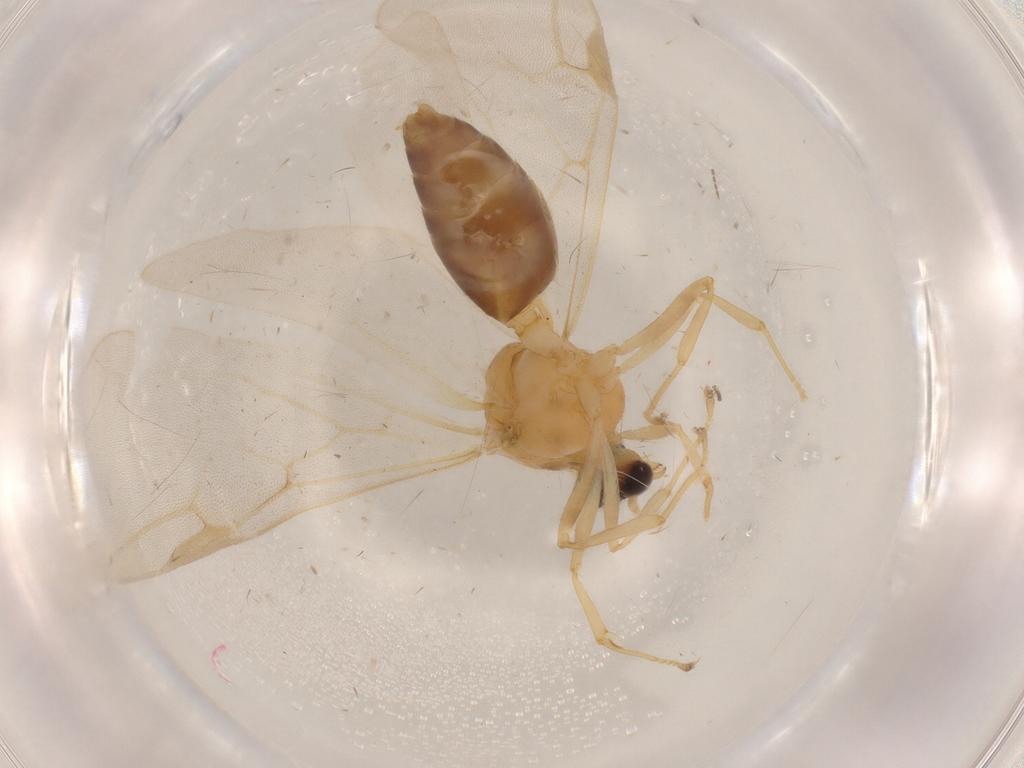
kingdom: Animalia
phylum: Arthropoda
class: Insecta
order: Hymenoptera
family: Formicidae
